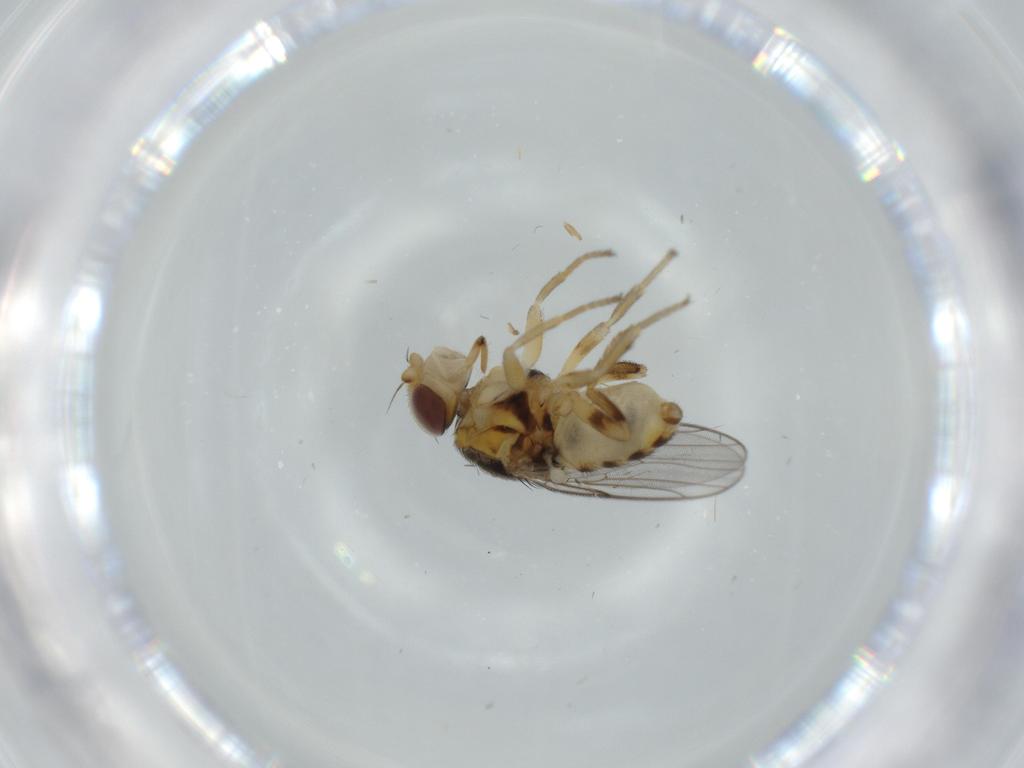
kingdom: Animalia
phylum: Arthropoda
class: Insecta
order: Diptera
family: Chloropidae
